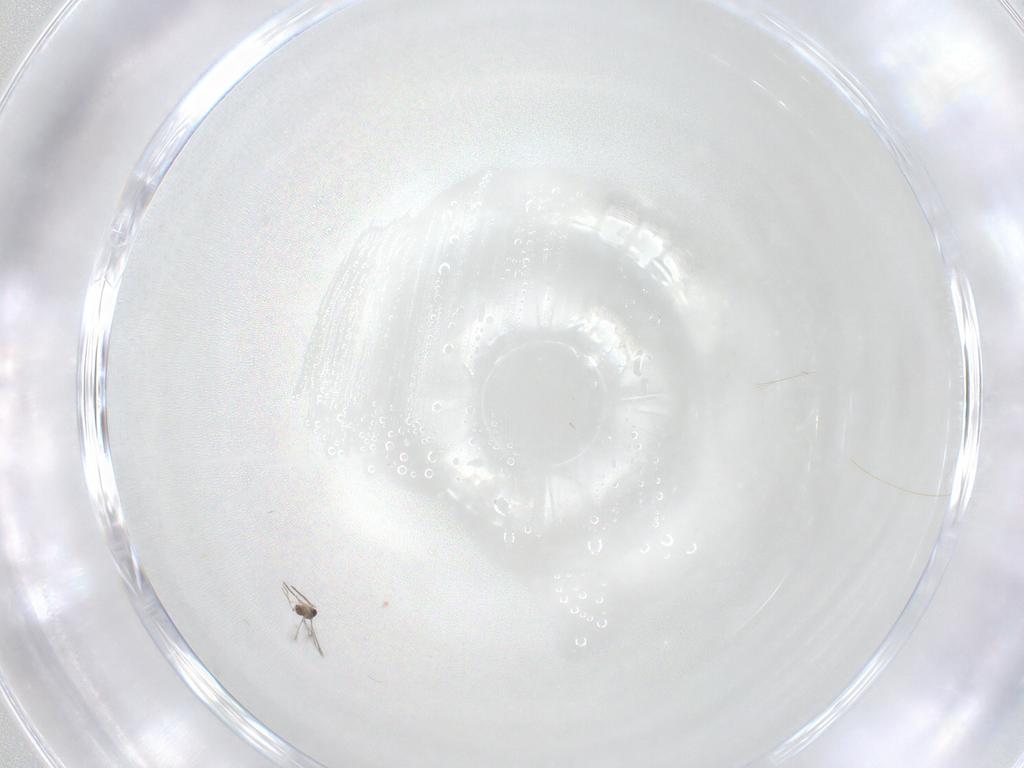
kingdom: Animalia
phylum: Arthropoda
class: Insecta
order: Hymenoptera
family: Mymaridae
